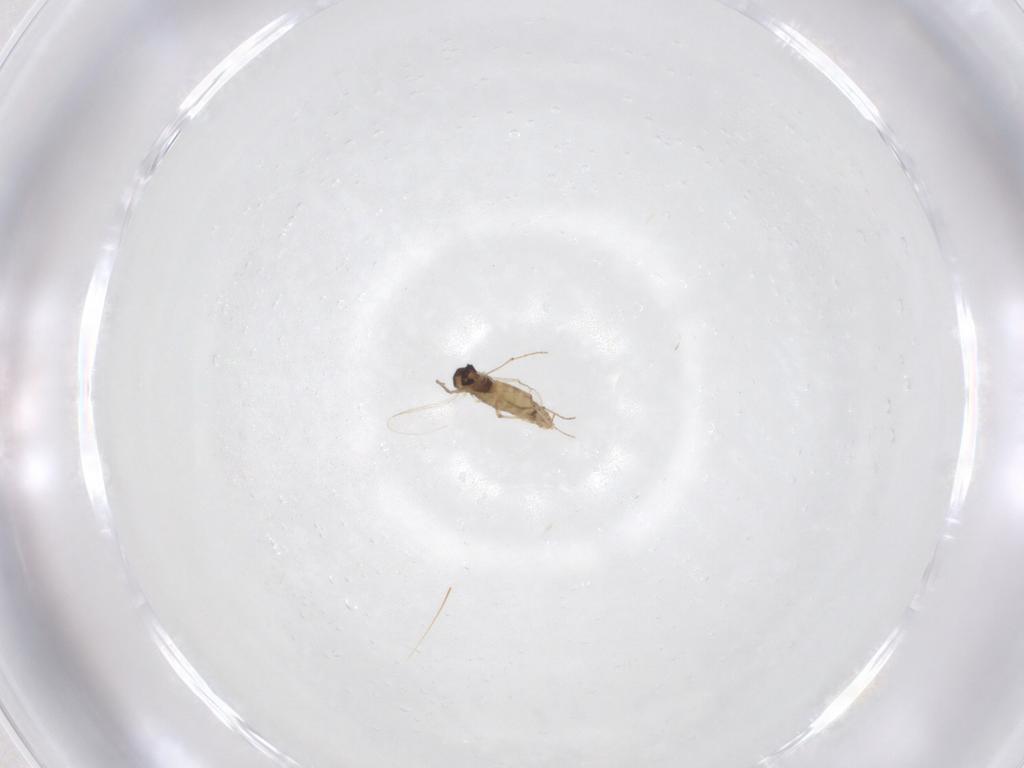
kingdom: Animalia
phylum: Arthropoda
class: Insecta
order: Diptera
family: Chironomidae
